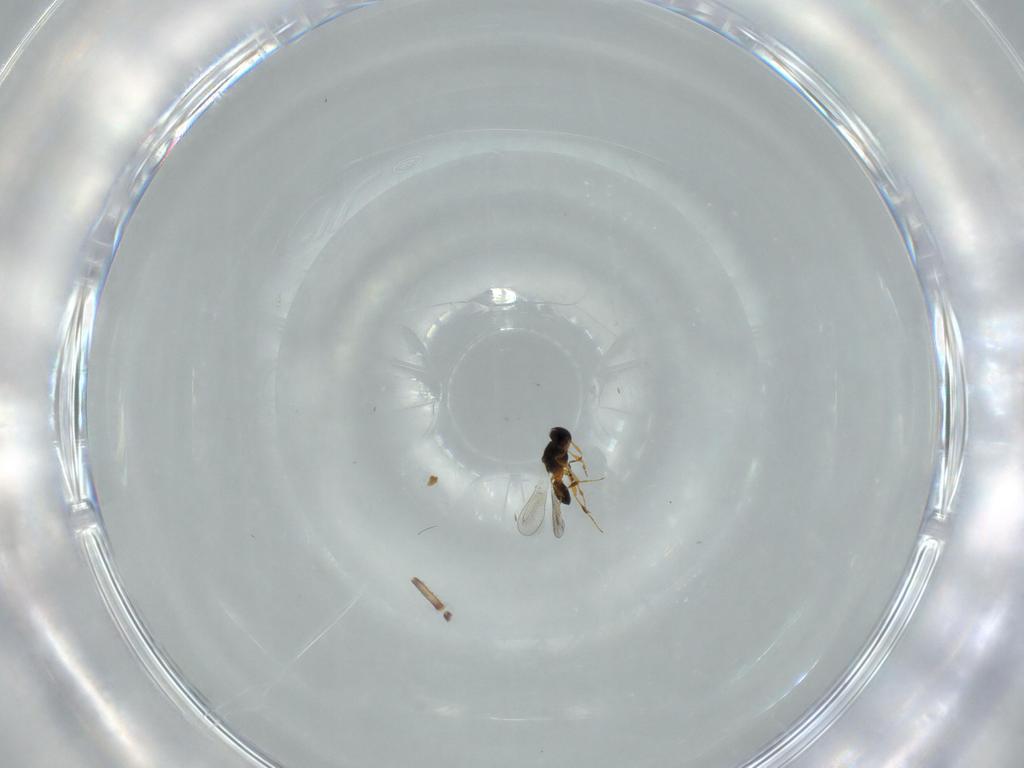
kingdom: Animalia
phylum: Arthropoda
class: Insecta
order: Hymenoptera
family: Platygastridae
